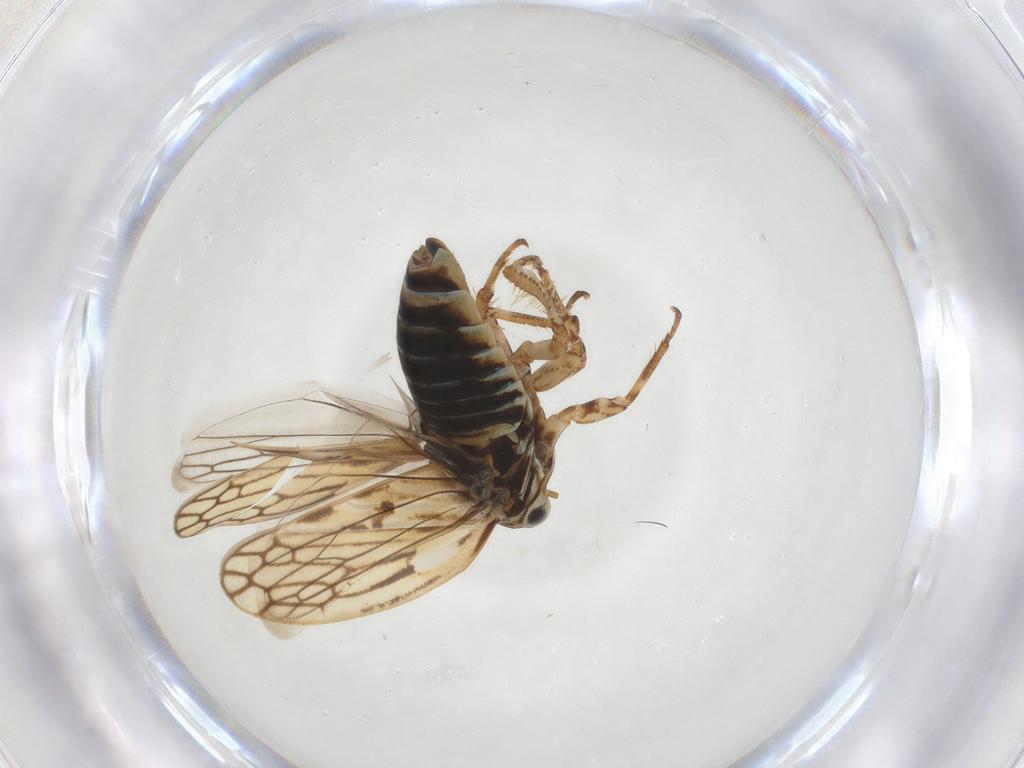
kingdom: Animalia
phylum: Arthropoda
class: Insecta
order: Hemiptera
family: Cicadellidae
